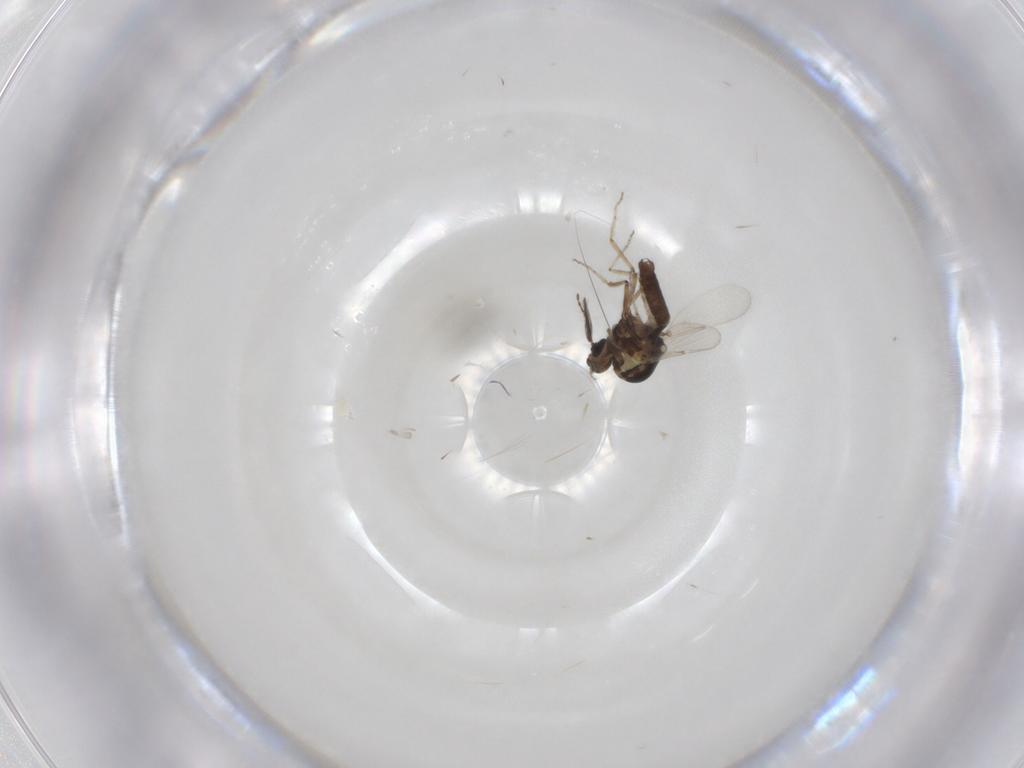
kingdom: Animalia
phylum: Arthropoda
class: Insecta
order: Diptera
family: Ceratopogonidae
